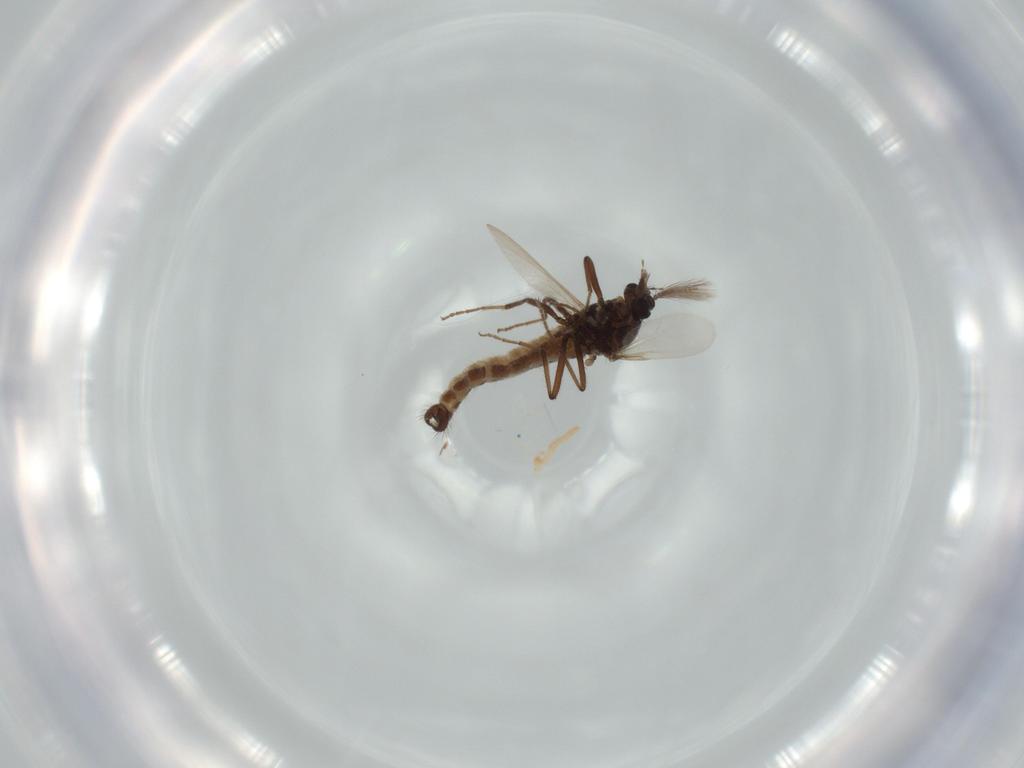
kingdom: Animalia
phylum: Arthropoda
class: Insecta
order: Diptera
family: Ceratopogonidae
